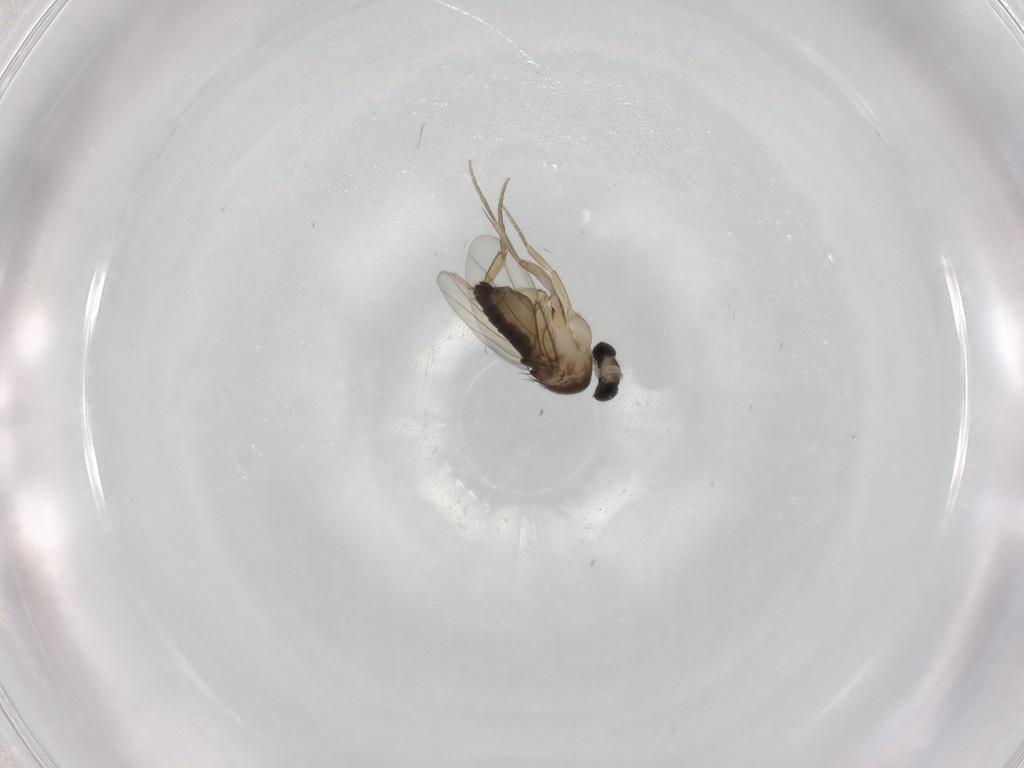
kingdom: Animalia
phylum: Arthropoda
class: Insecta
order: Diptera
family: Phoridae
